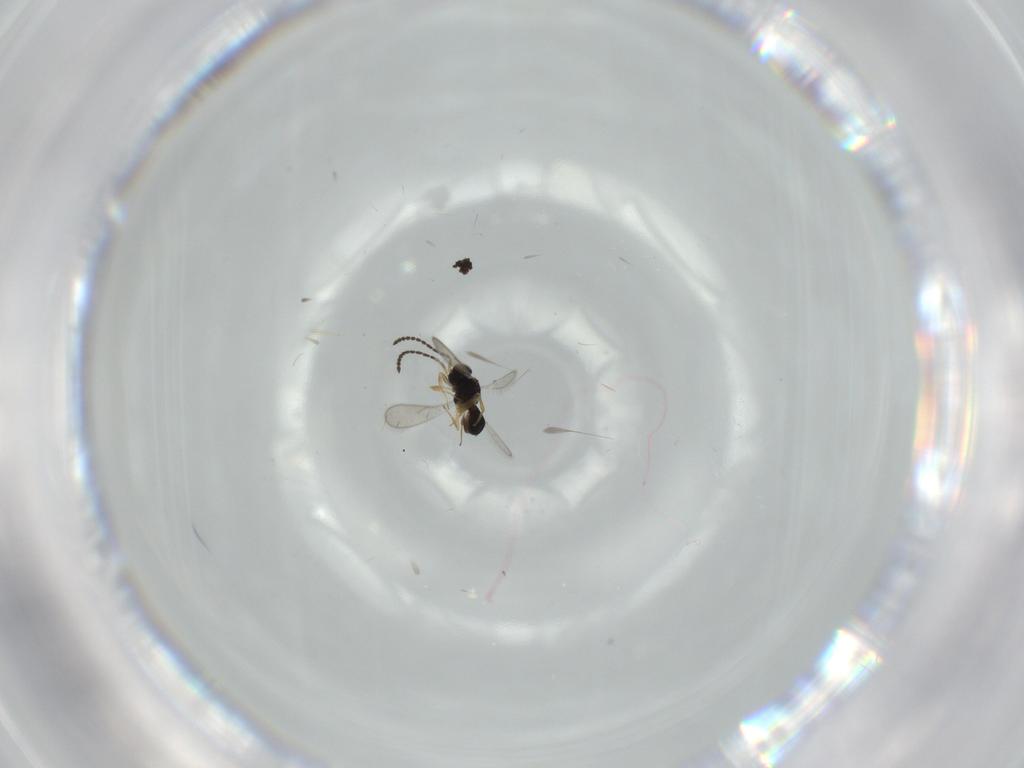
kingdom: Animalia
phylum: Arthropoda
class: Insecta
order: Hymenoptera
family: Scelionidae
